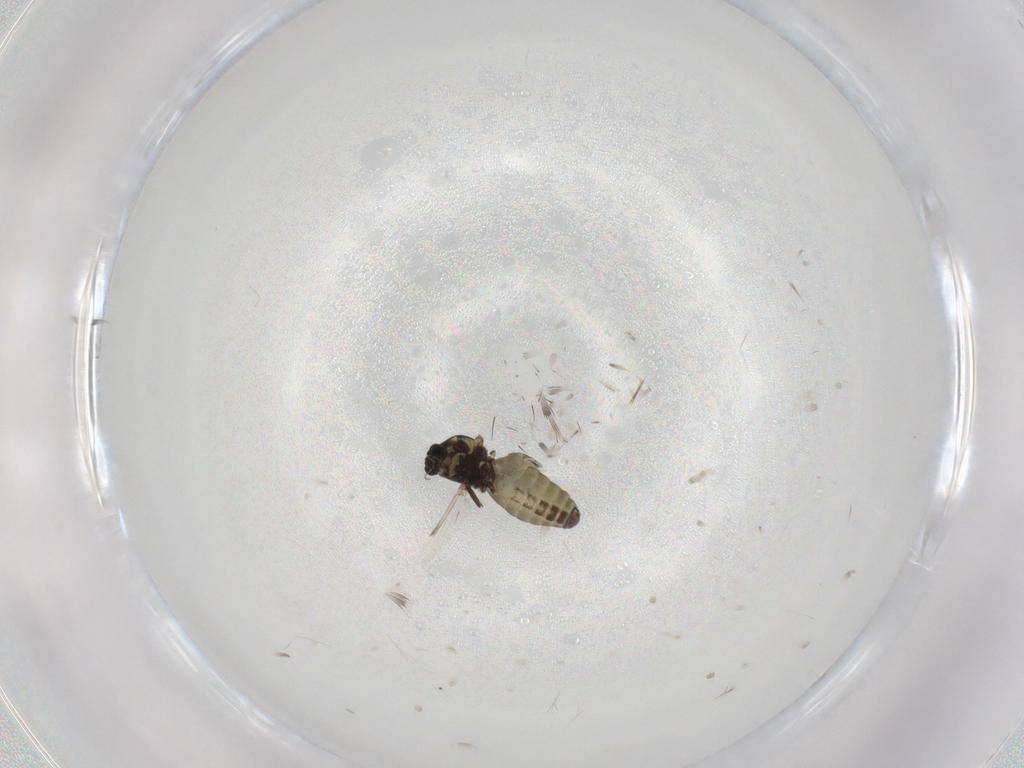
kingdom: Animalia
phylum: Arthropoda
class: Insecta
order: Diptera
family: Ceratopogonidae
